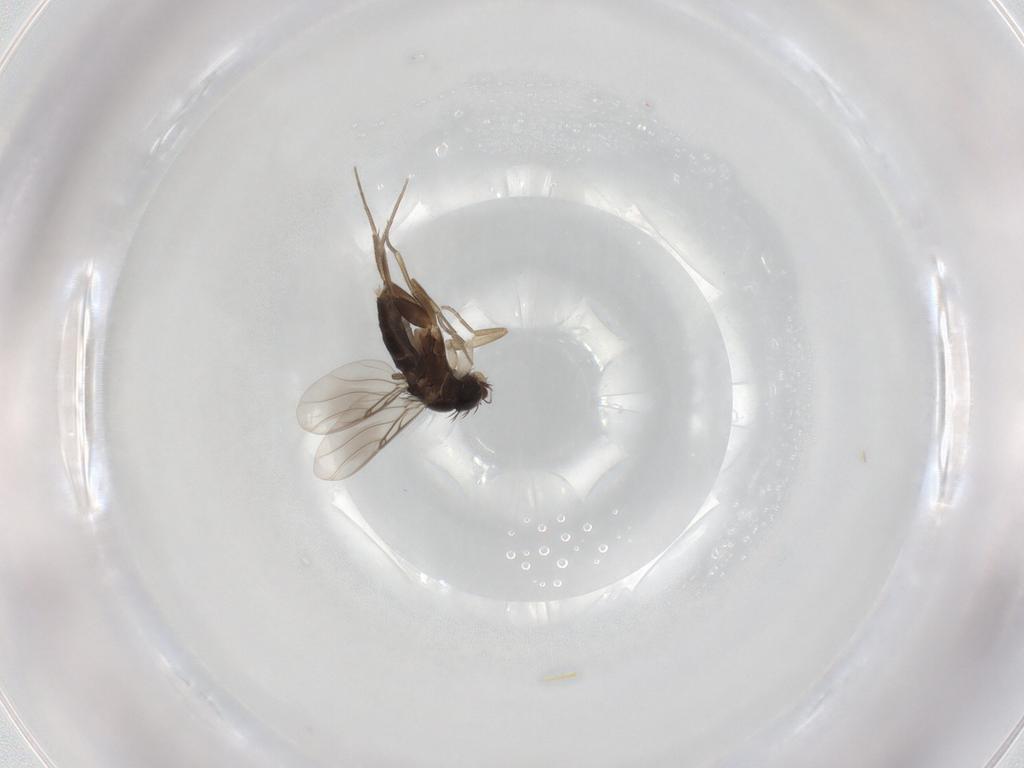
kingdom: Animalia
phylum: Arthropoda
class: Insecta
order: Diptera
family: Phoridae
